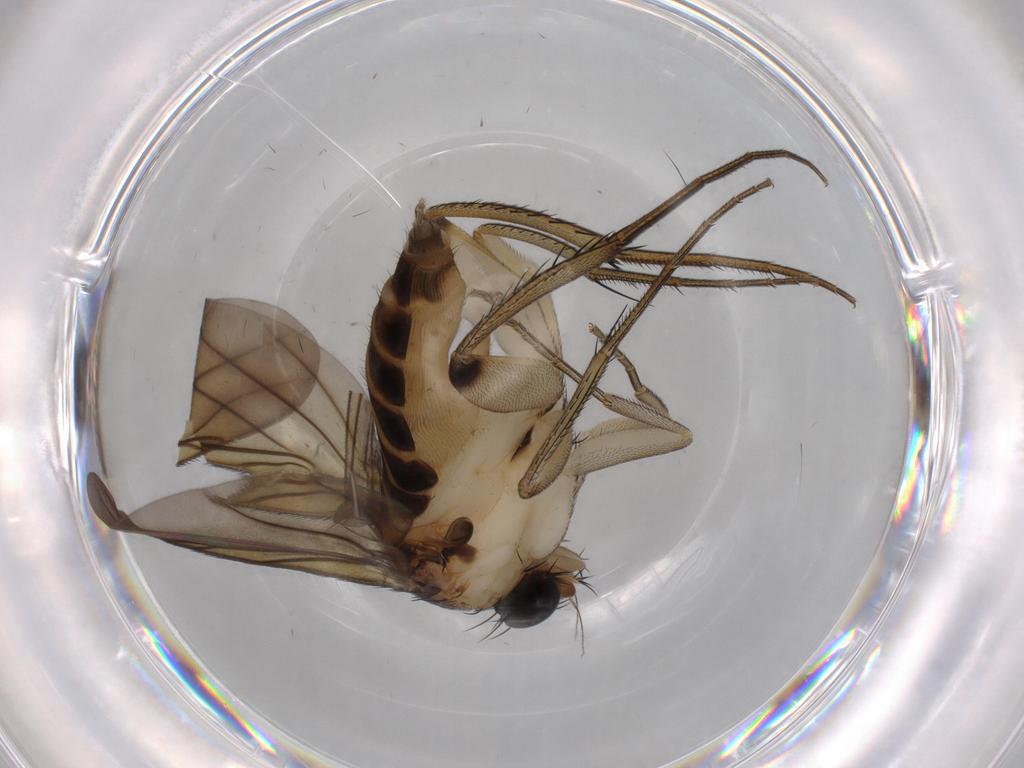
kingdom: Animalia
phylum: Arthropoda
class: Insecta
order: Diptera
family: Phoridae
